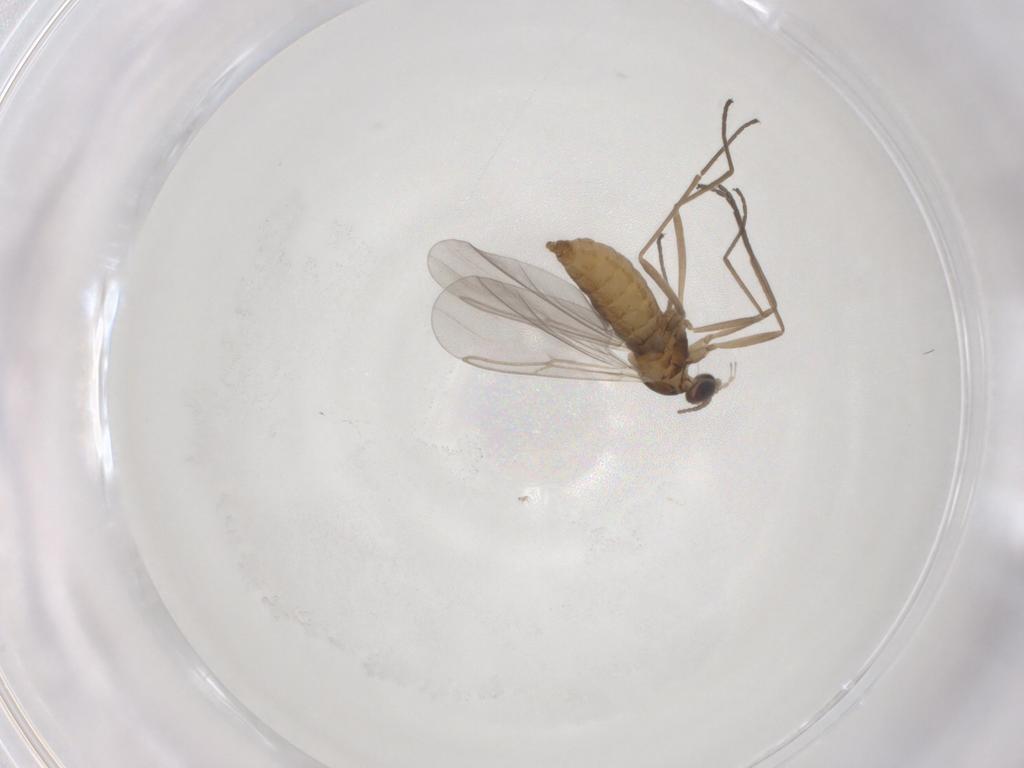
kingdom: Animalia
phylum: Arthropoda
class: Insecta
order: Diptera
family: Cecidomyiidae
